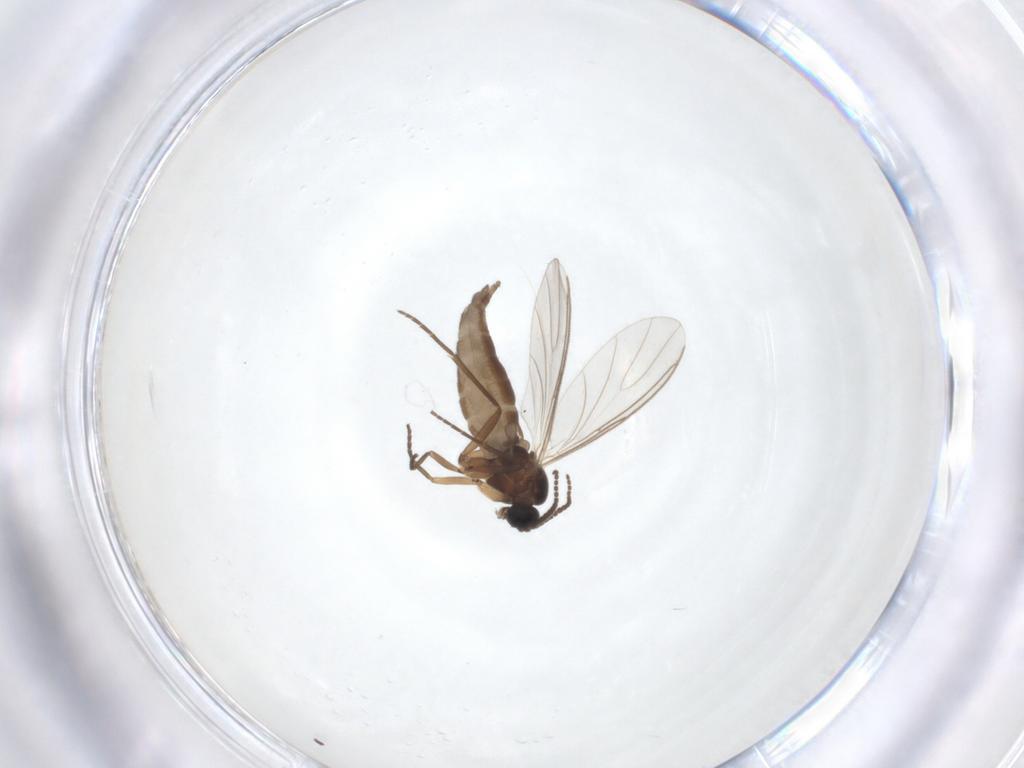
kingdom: Animalia
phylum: Arthropoda
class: Insecta
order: Diptera
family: Sciaridae
